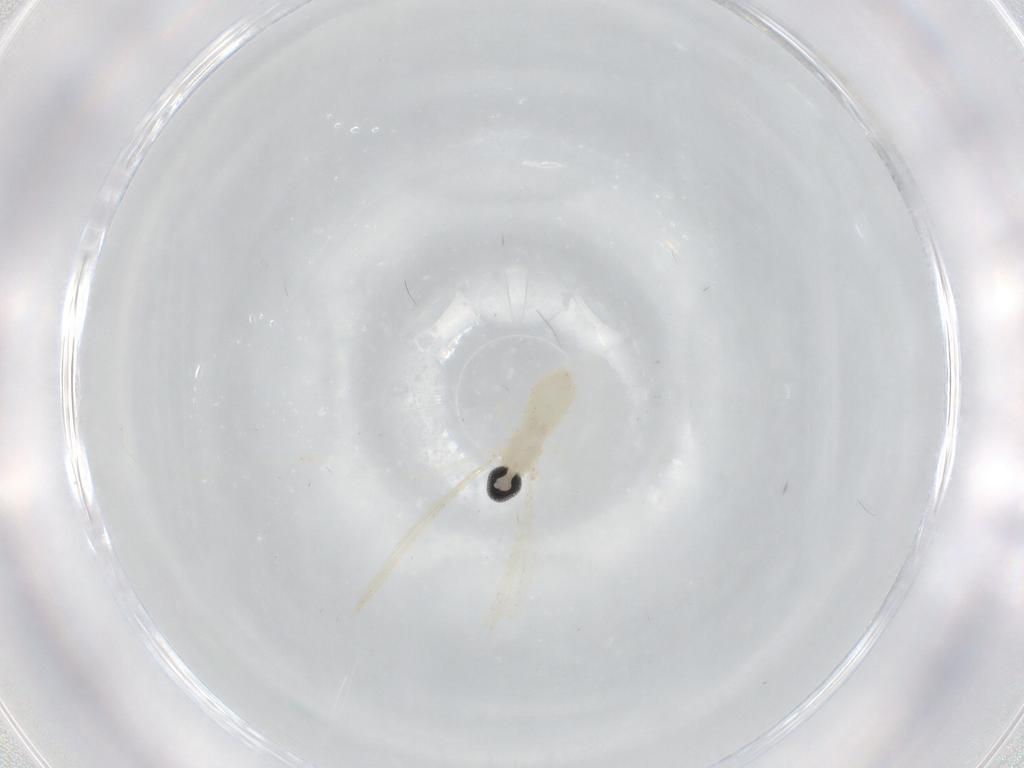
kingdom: Animalia
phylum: Arthropoda
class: Insecta
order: Diptera
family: Cecidomyiidae
